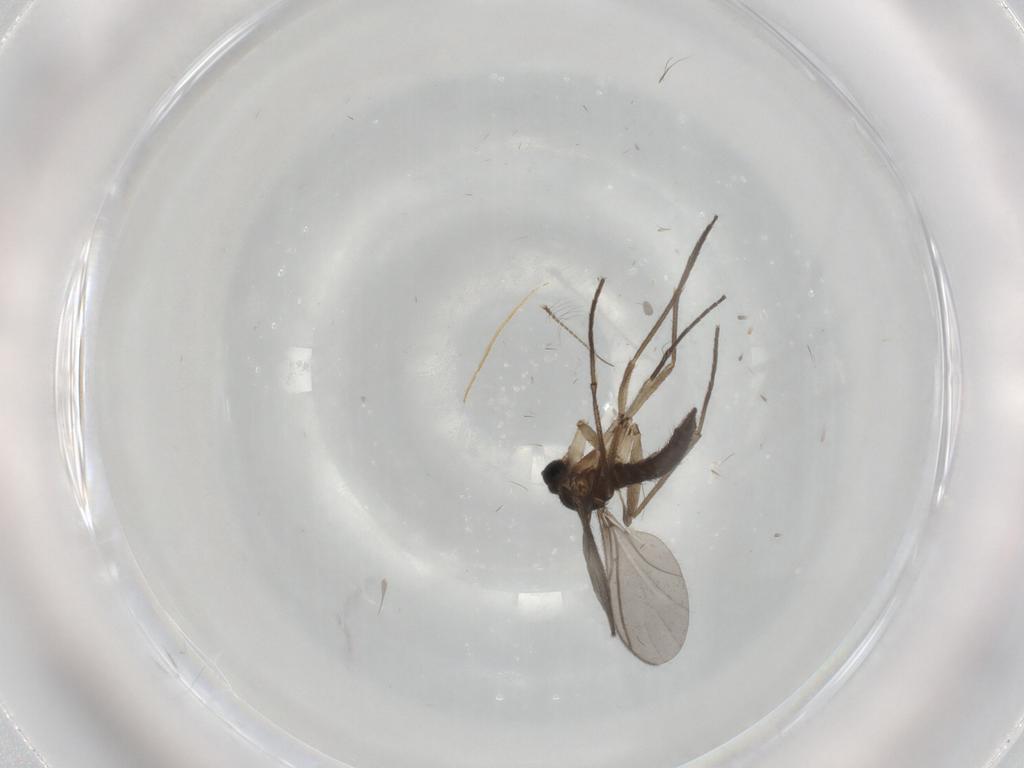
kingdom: Animalia
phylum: Arthropoda
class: Insecta
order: Diptera
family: Sciaridae
